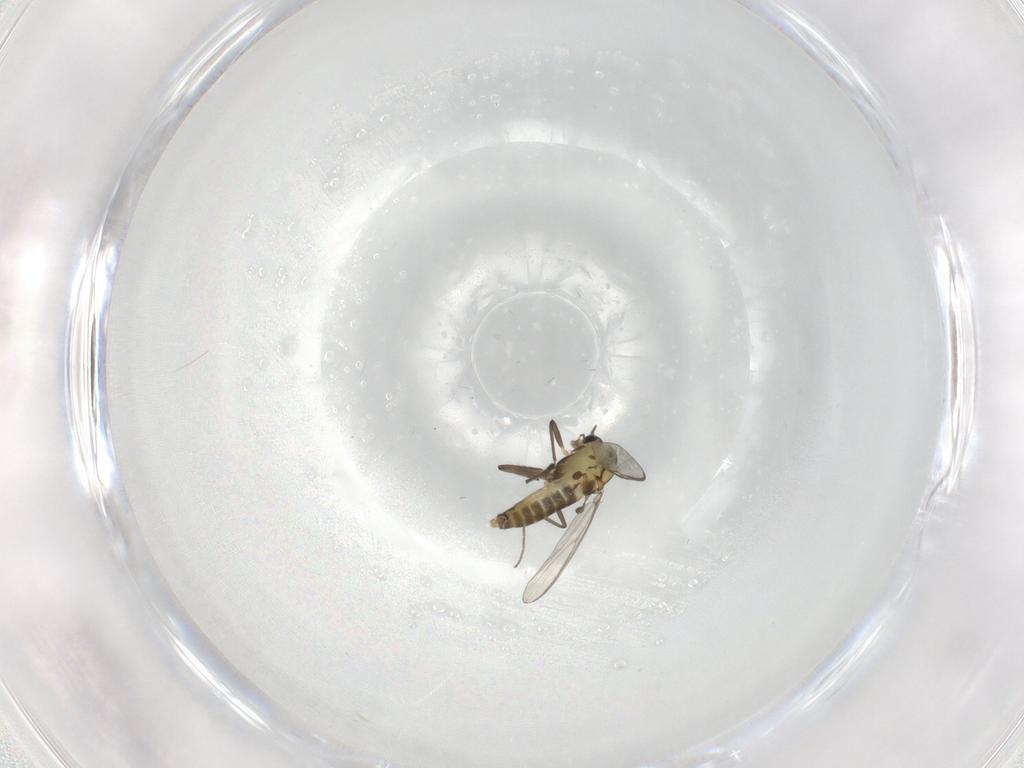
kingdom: Animalia
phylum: Arthropoda
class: Insecta
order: Diptera
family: Chironomidae
